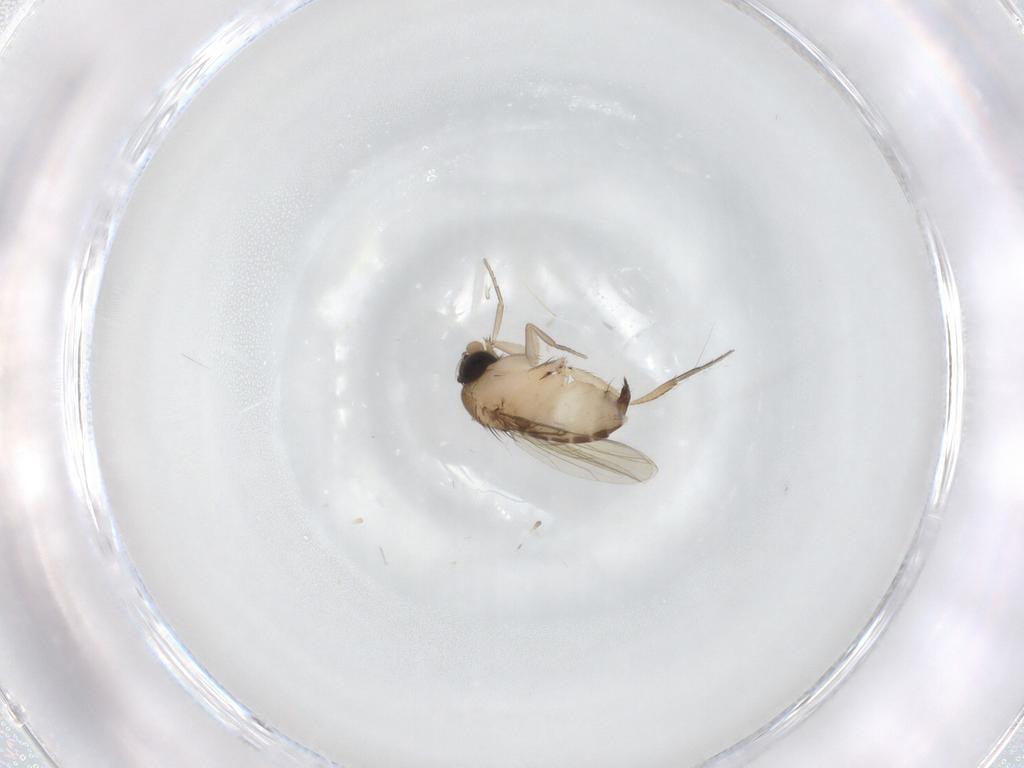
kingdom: Animalia
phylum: Arthropoda
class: Insecta
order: Diptera
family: Phoridae
